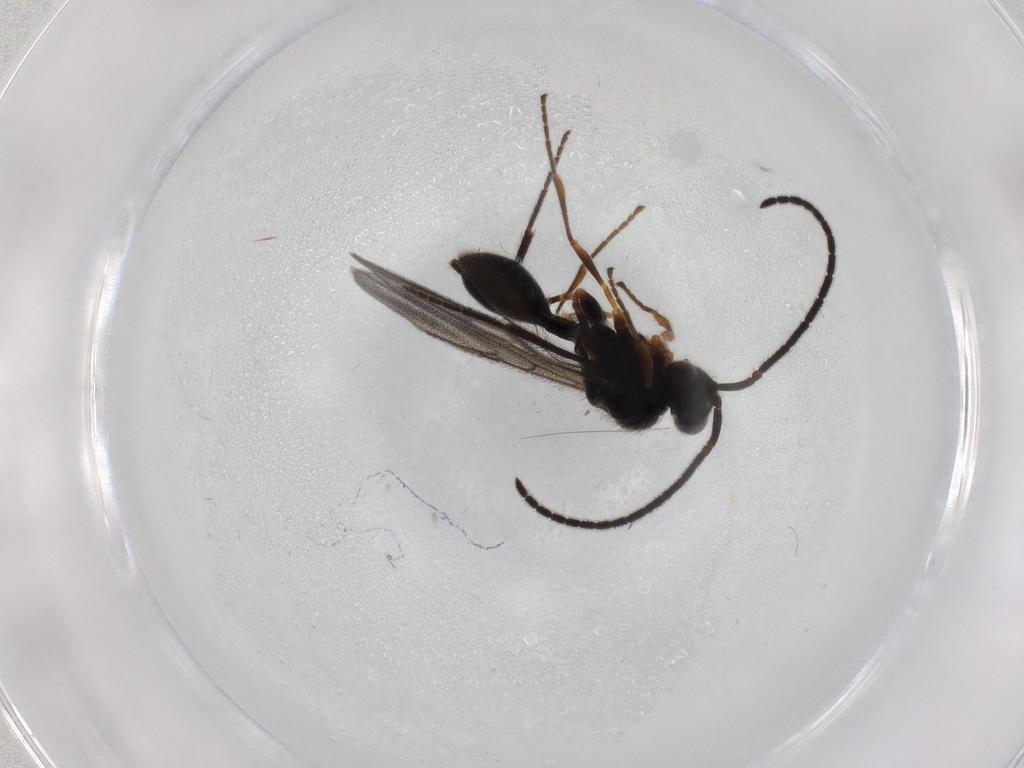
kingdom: Animalia
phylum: Arthropoda
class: Insecta
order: Hymenoptera
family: Diapriidae
